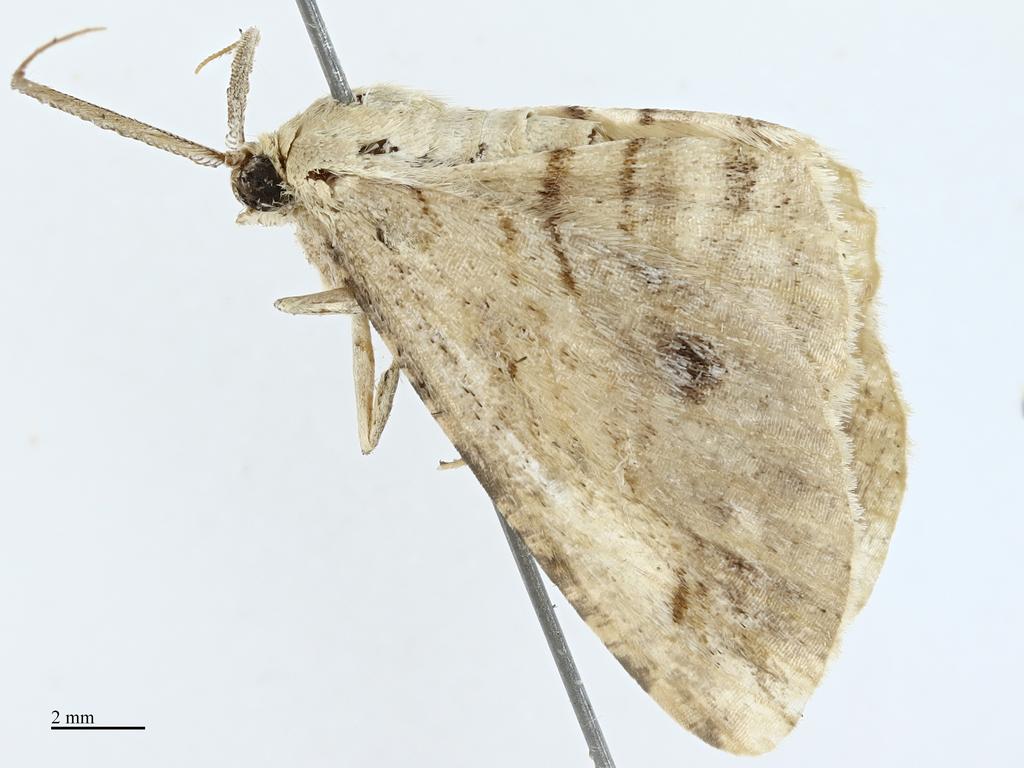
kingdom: Animalia
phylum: Arthropoda
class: Insecta
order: Lepidoptera
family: Geometridae
